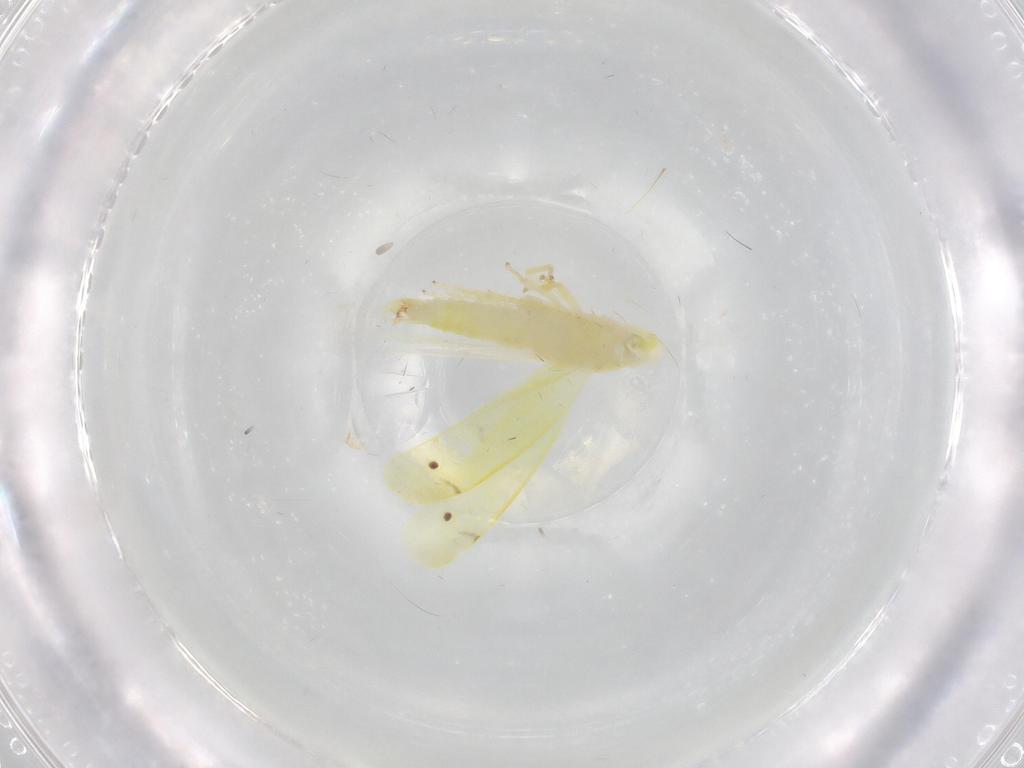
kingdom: Animalia
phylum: Arthropoda
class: Insecta
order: Hemiptera
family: Cicadellidae
